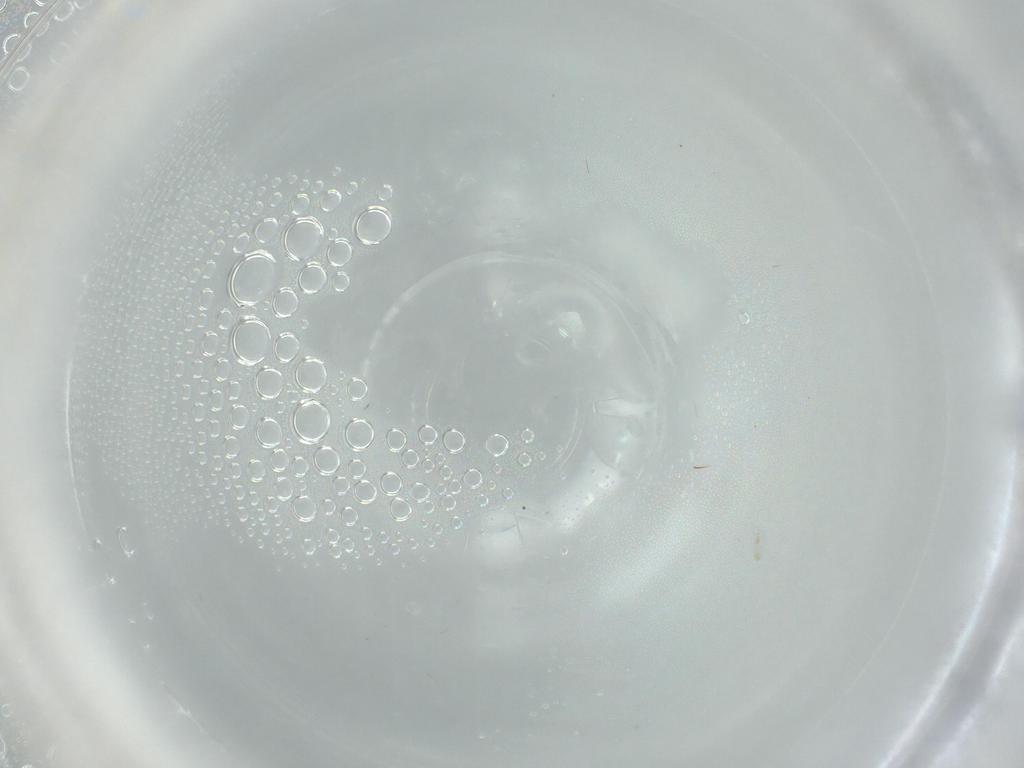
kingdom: Animalia
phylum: Arthropoda
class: Insecta
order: Blattodea
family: Ectobiidae
